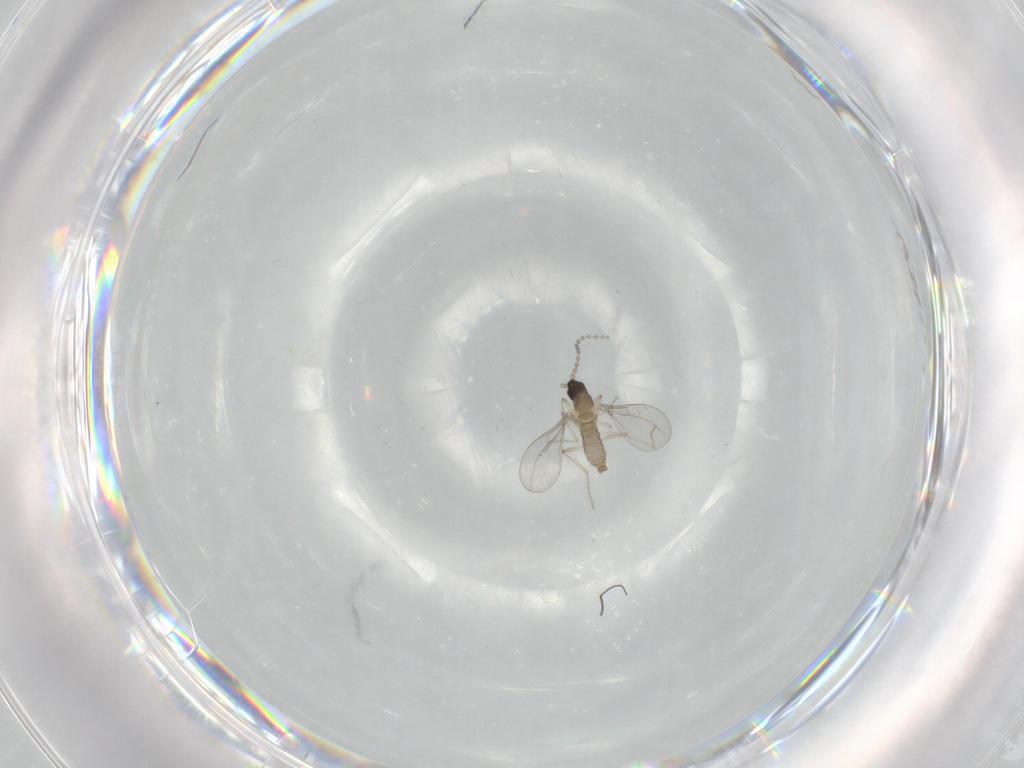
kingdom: Animalia
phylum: Arthropoda
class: Insecta
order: Diptera
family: Cecidomyiidae
